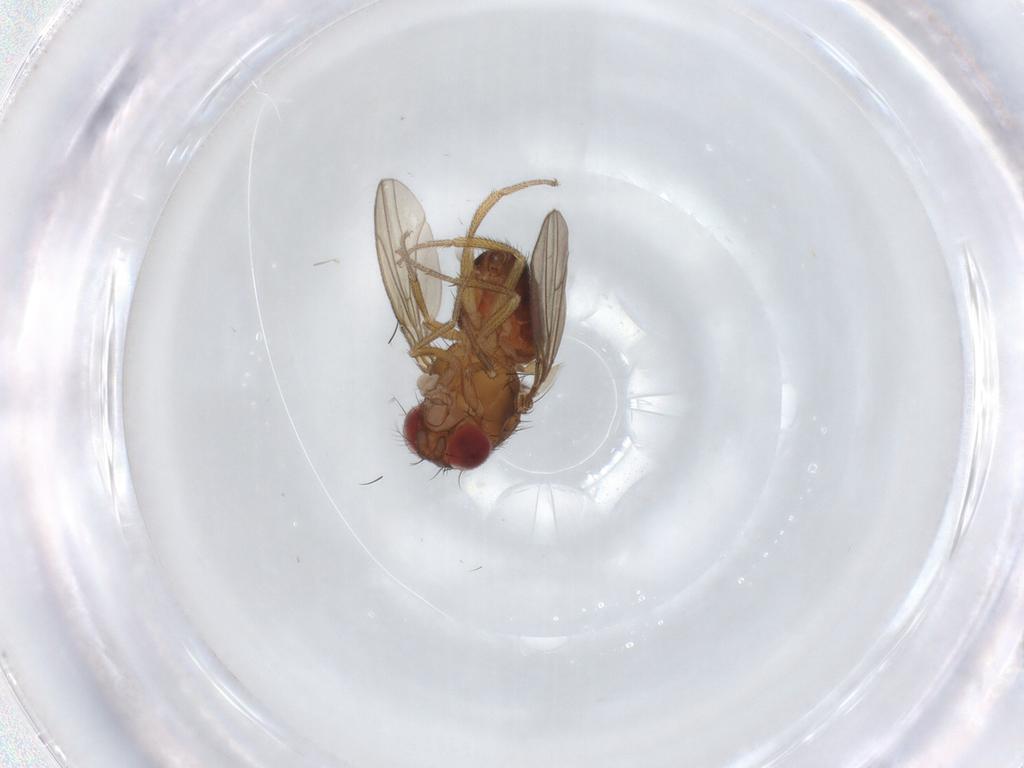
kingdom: Animalia
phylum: Arthropoda
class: Insecta
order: Diptera
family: Drosophilidae
